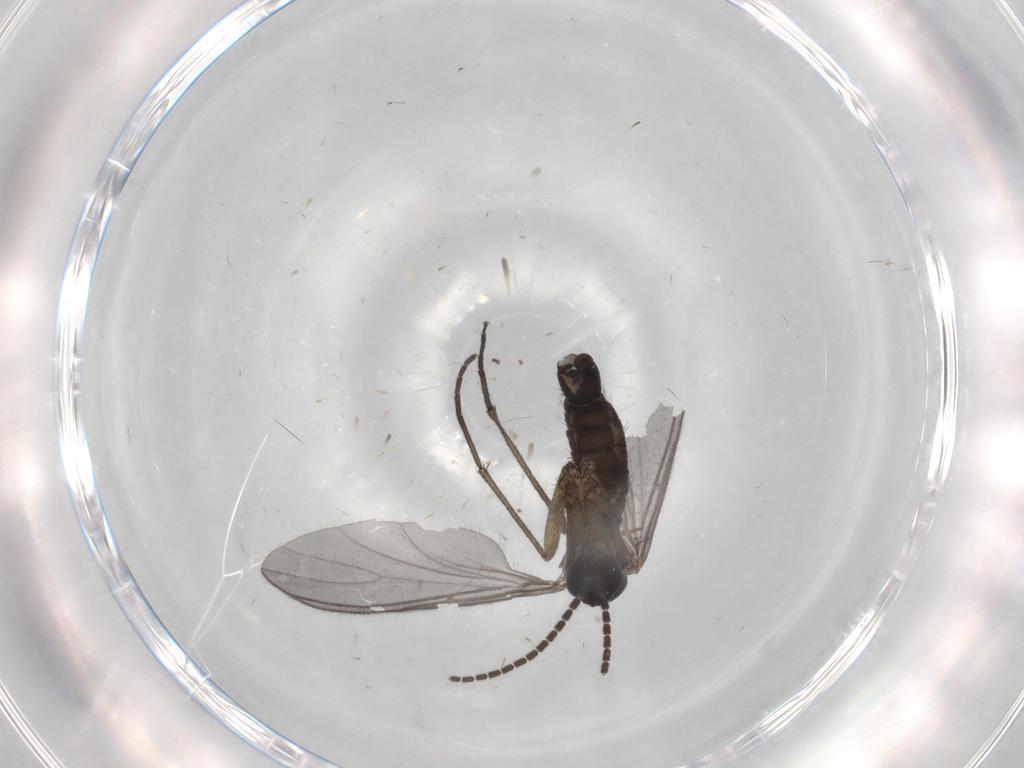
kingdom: Animalia
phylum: Arthropoda
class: Insecta
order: Diptera
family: Sciaridae
